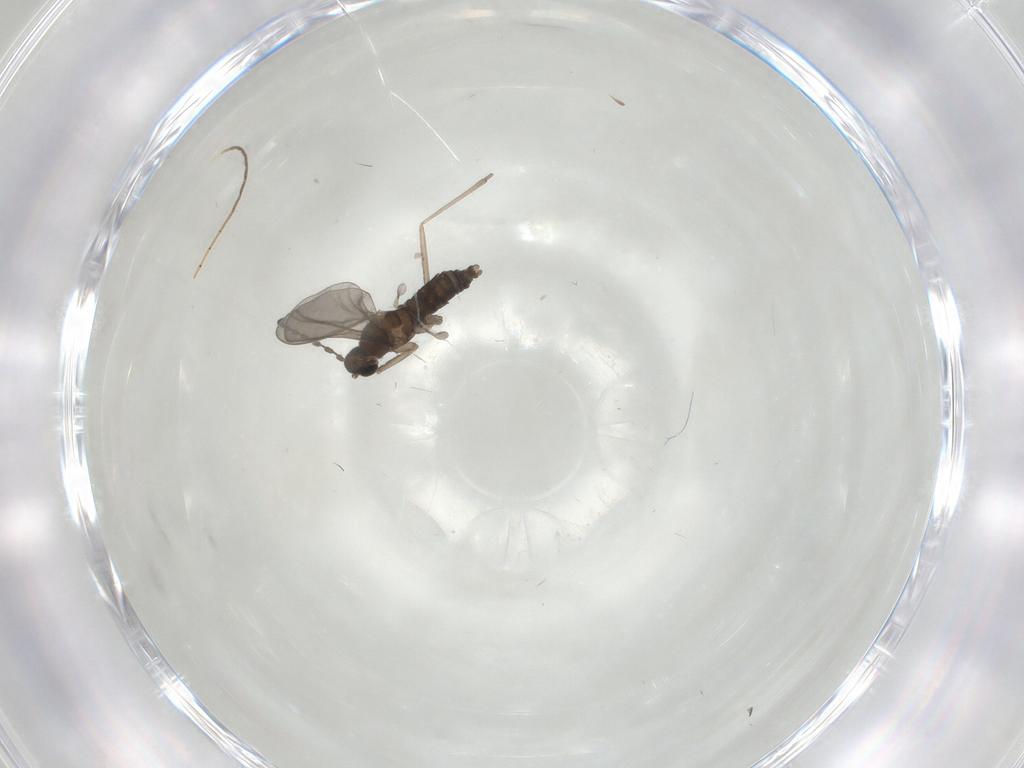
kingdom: Animalia
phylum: Arthropoda
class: Insecta
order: Diptera
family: Cecidomyiidae
